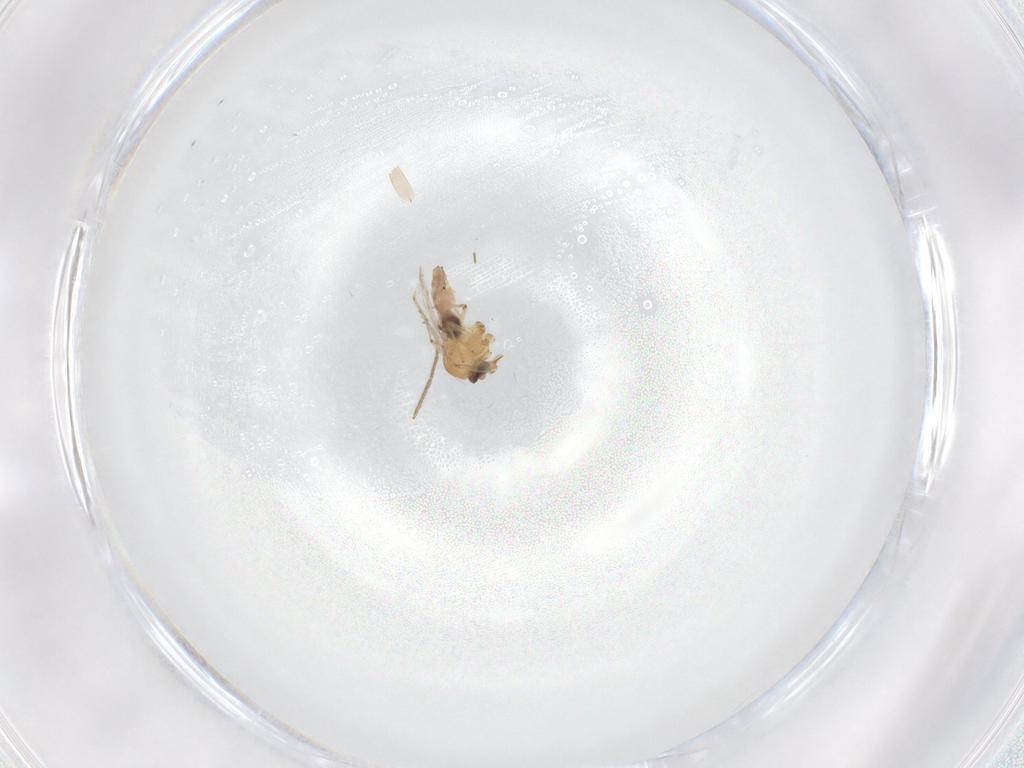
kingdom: Animalia
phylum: Arthropoda
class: Insecta
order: Diptera
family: Ceratopogonidae
